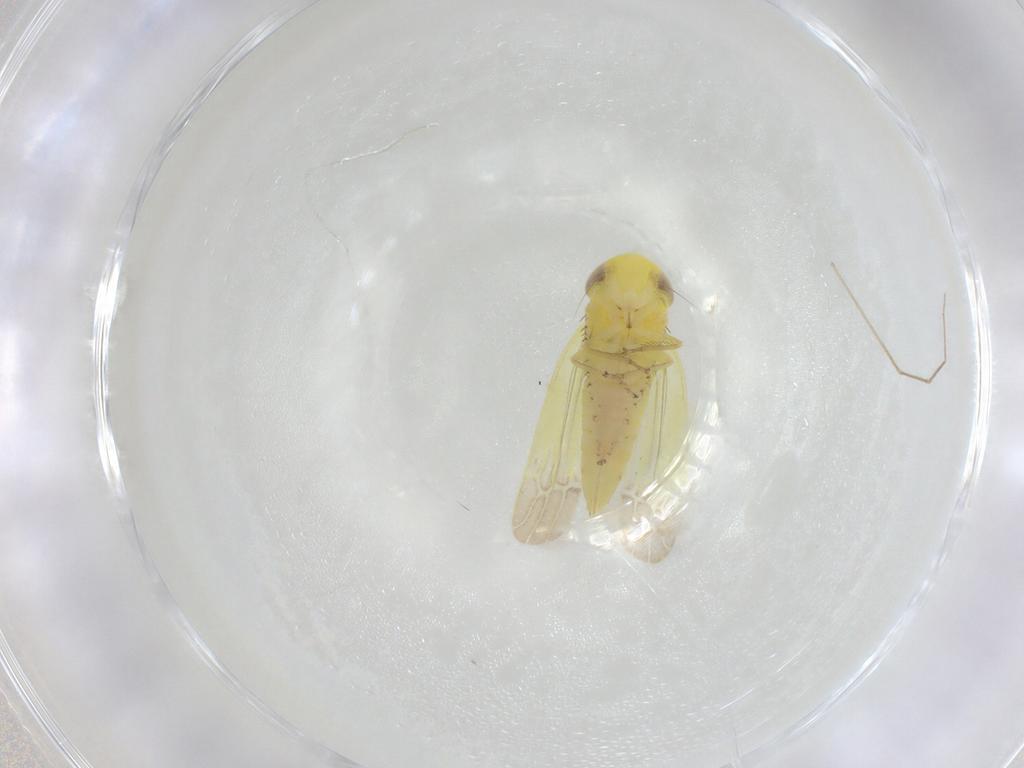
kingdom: Animalia
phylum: Arthropoda
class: Insecta
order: Hemiptera
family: Cicadellidae
